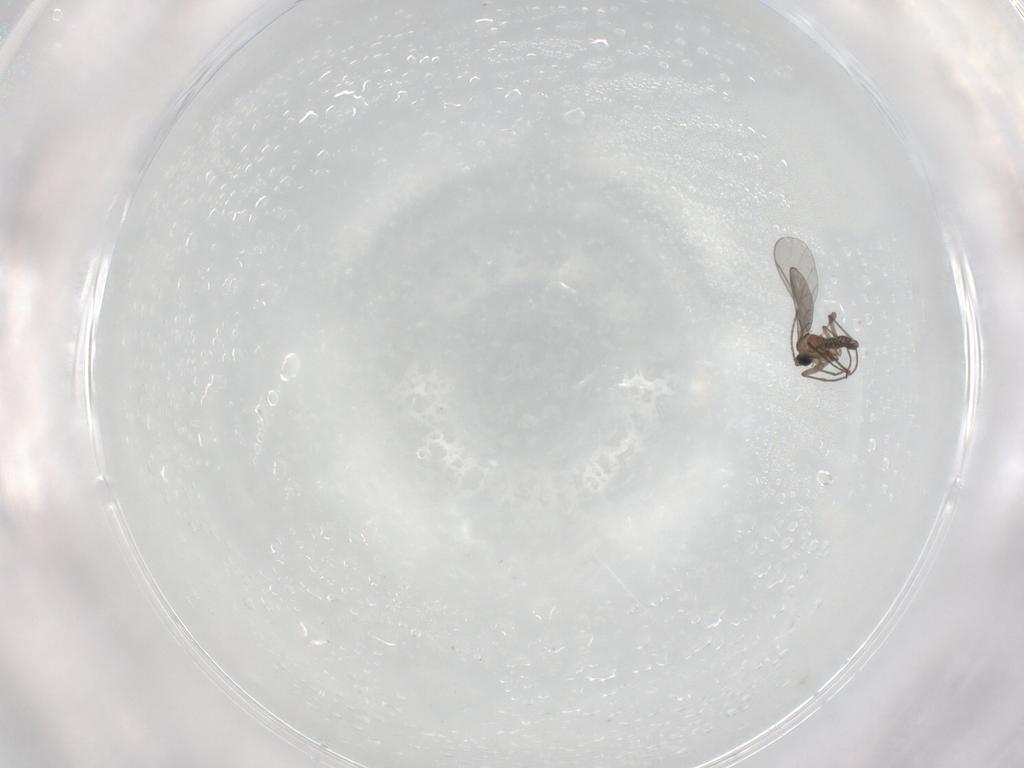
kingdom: Animalia
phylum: Arthropoda
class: Insecta
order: Diptera
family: Sciaridae
